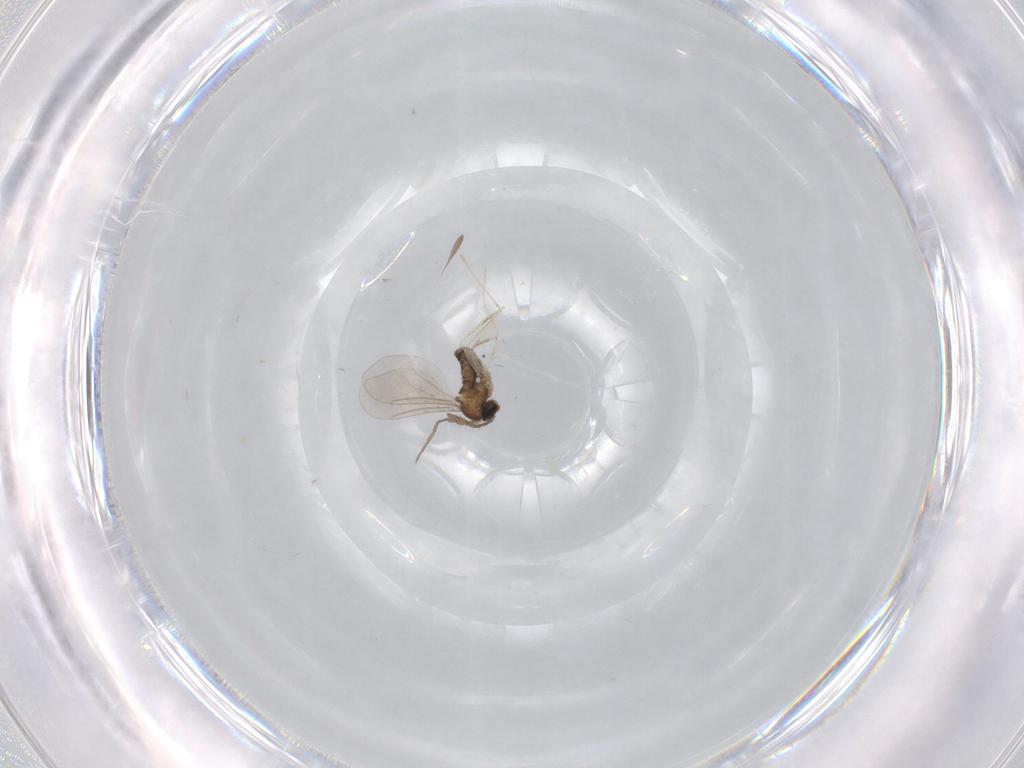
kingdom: Animalia
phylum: Arthropoda
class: Insecta
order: Diptera
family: Cecidomyiidae
